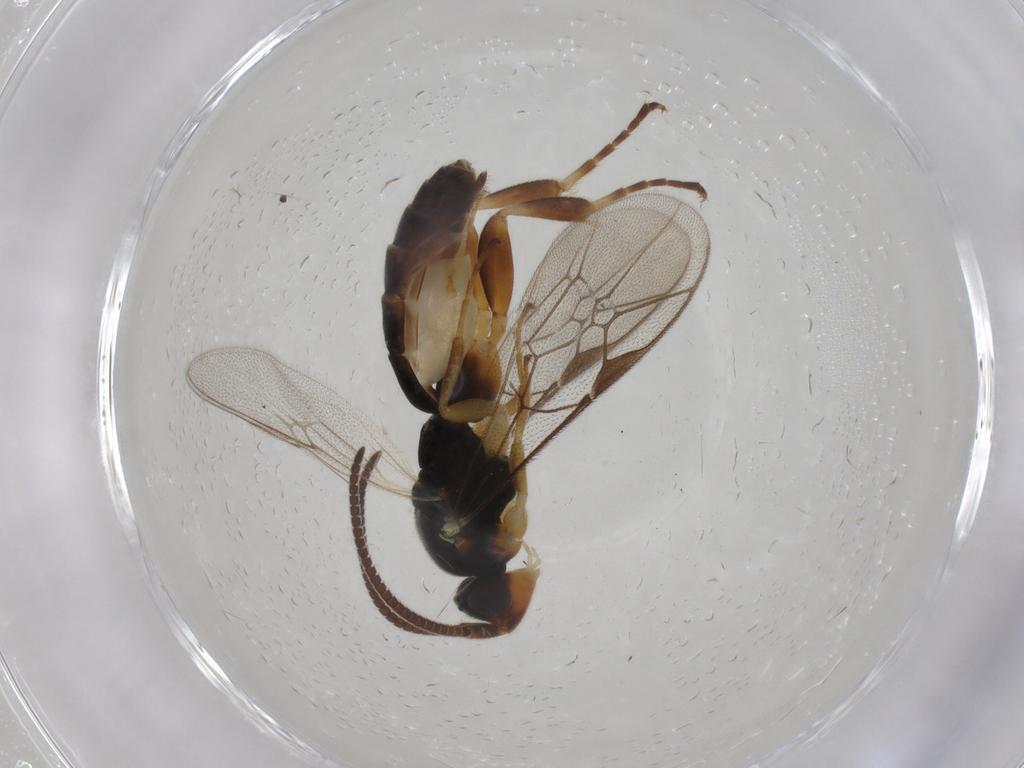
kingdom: Animalia
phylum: Arthropoda
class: Insecta
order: Hymenoptera
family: Ichneumonidae
